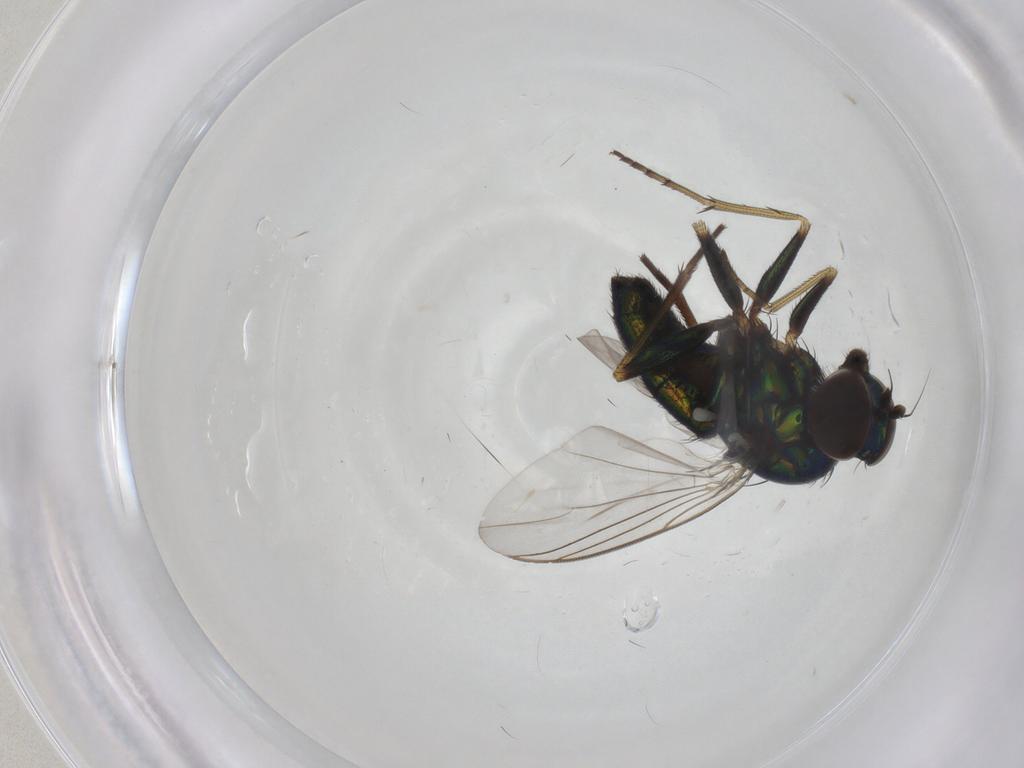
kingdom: Animalia
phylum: Arthropoda
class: Insecta
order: Diptera
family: Dolichopodidae
